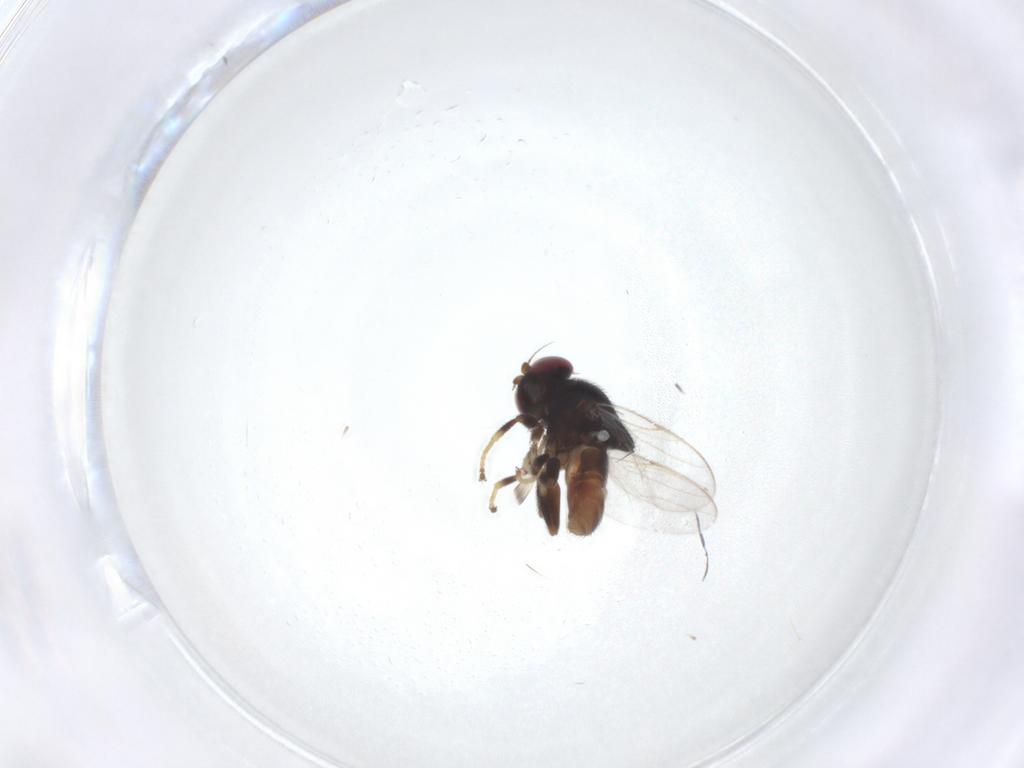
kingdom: Animalia
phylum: Arthropoda
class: Insecta
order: Diptera
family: Chloropidae
